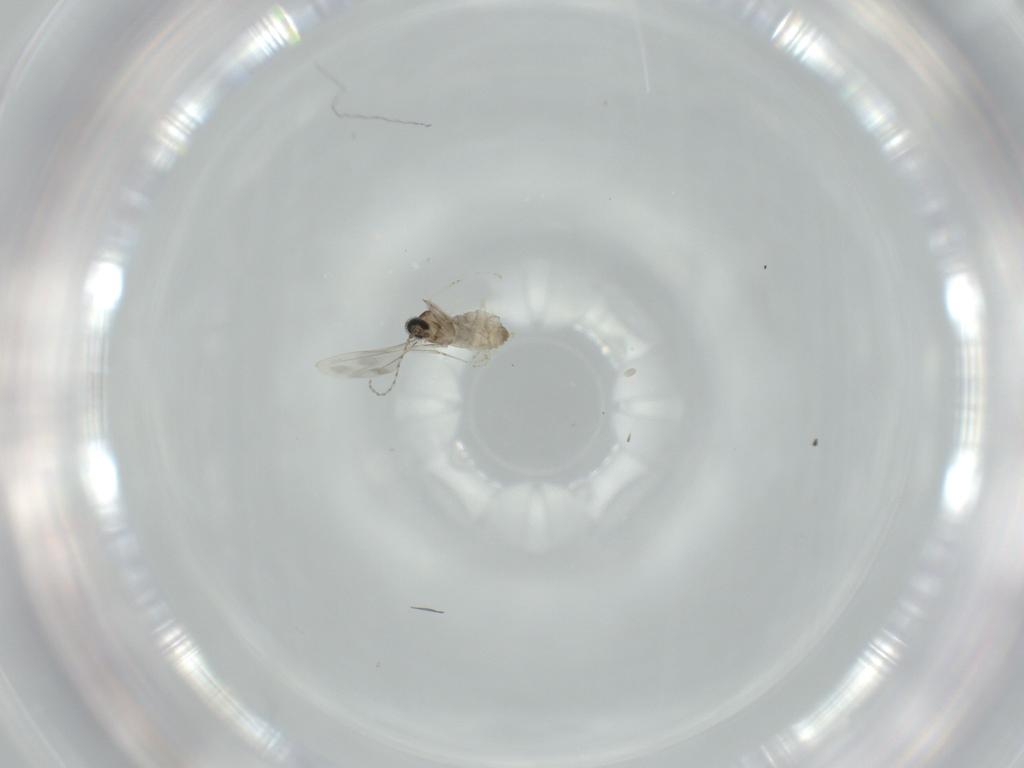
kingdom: Animalia
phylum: Arthropoda
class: Insecta
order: Diptera
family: Cecidomyiidae
